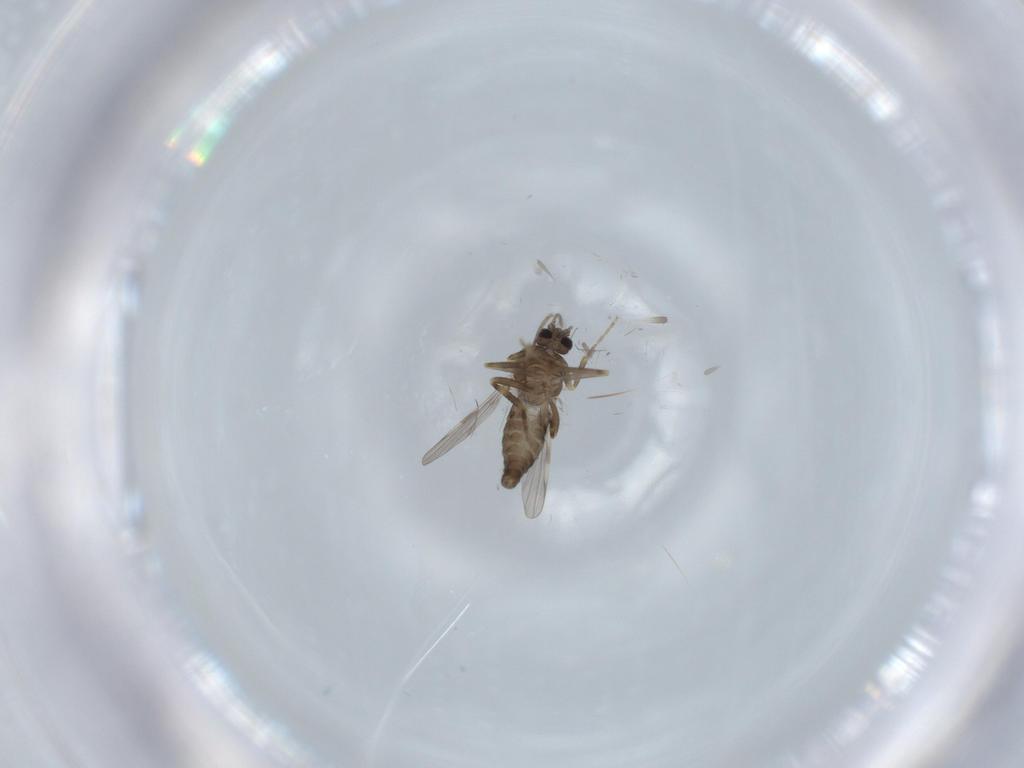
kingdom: Animalia
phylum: Arthropoda
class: Insecta
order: Diptera
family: Ceratopogonidae
